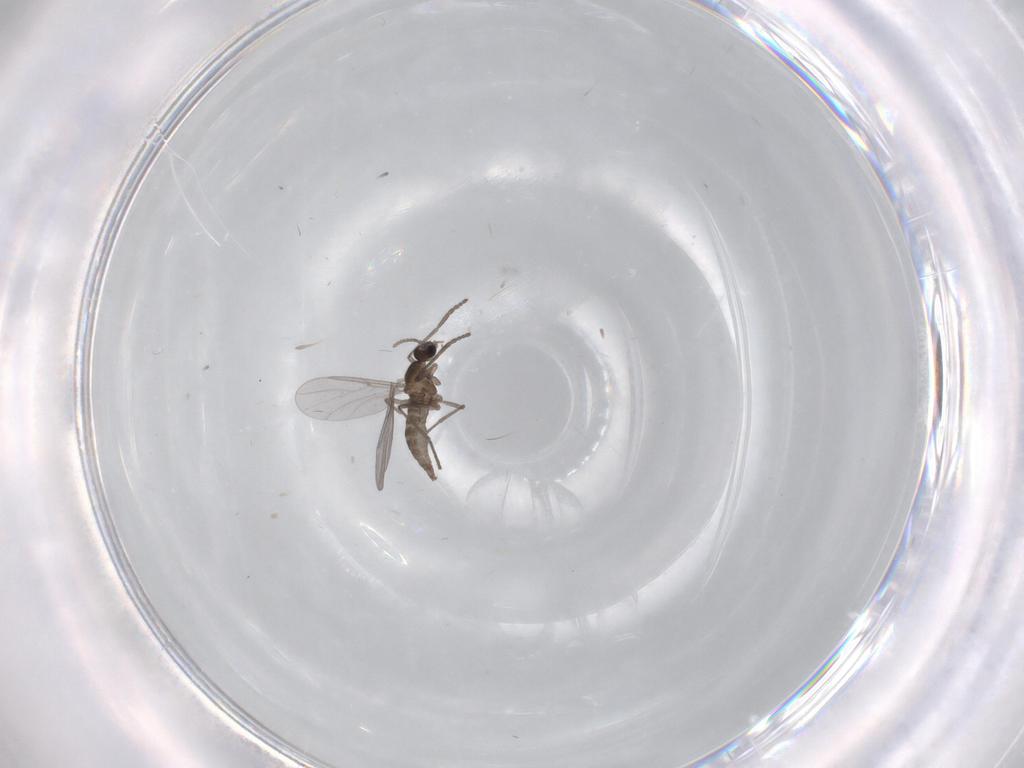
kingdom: Animalia
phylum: Arthropoda
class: Insecta
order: Diptera
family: Cecidomyiidae
